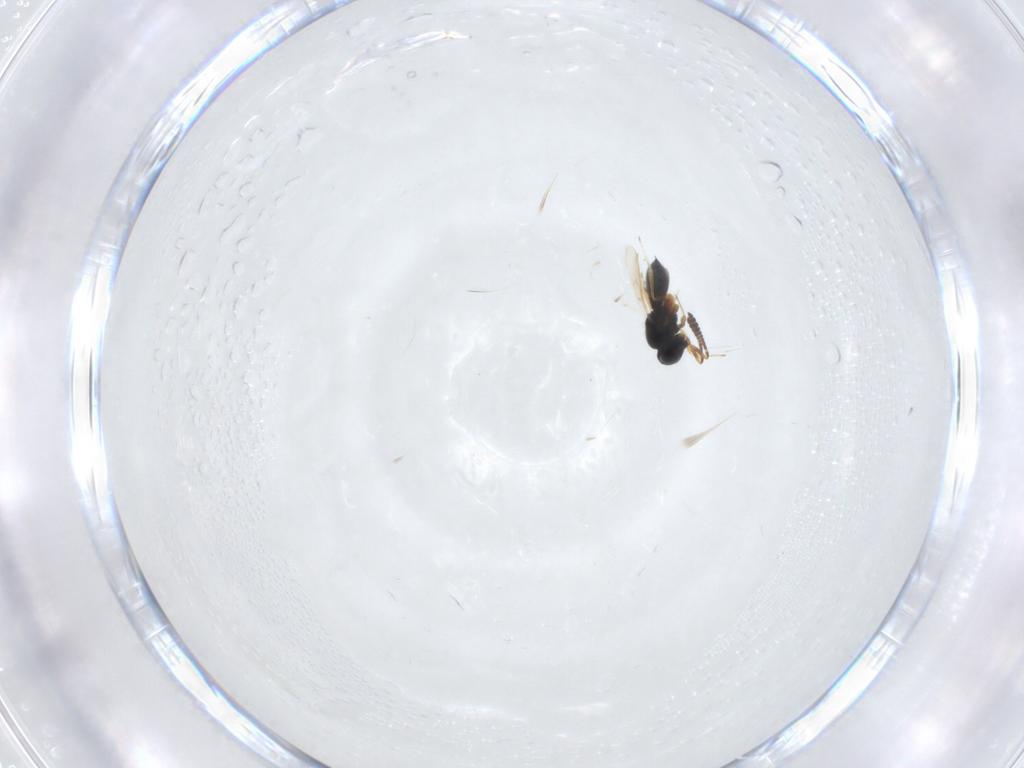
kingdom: Animalia
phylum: Arthropoda
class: Insecta
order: Hymenoptera
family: Scelionidae
